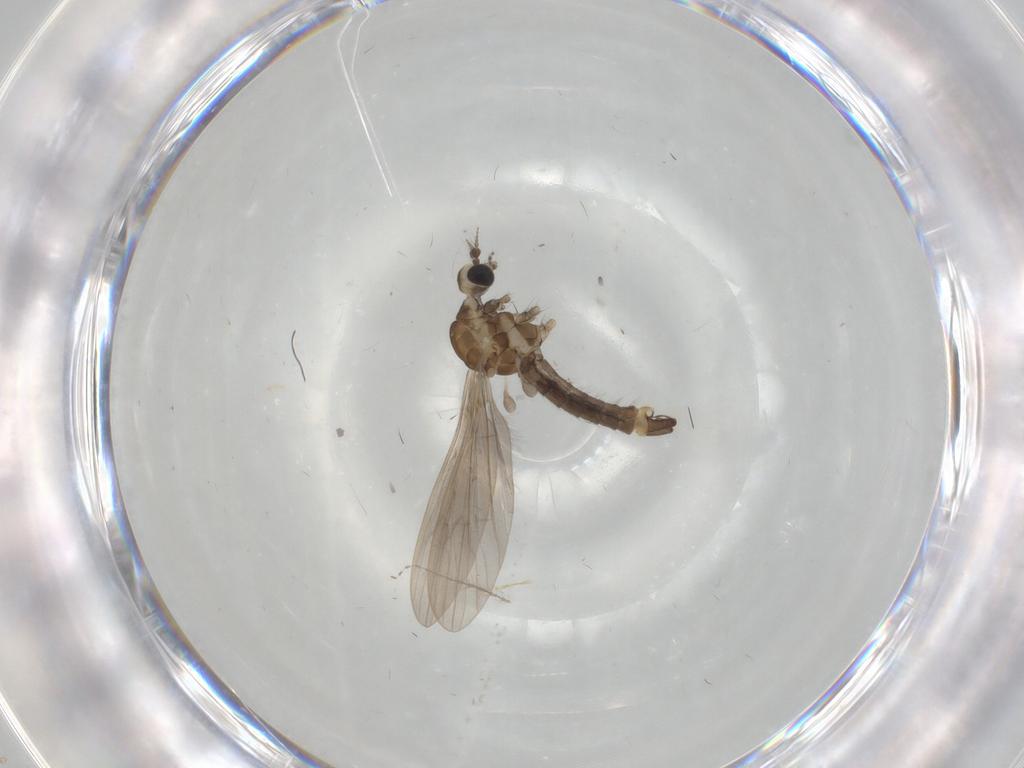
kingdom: Animalia
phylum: Arthropoda
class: Insecta
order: Diptera
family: Limoniidae
